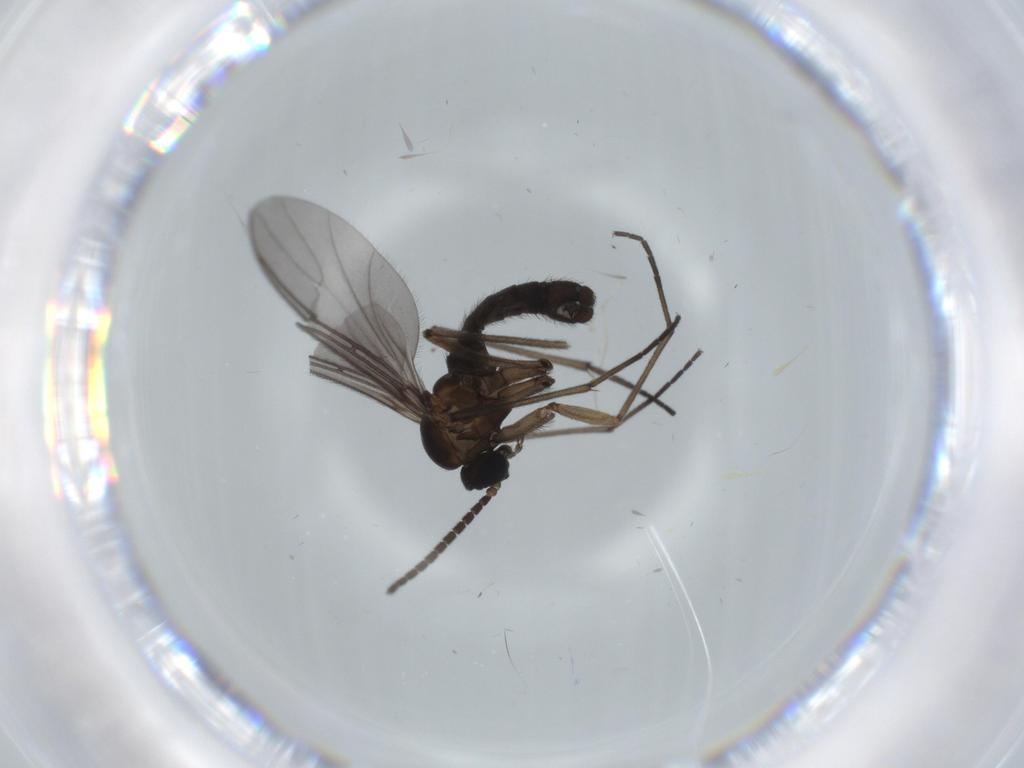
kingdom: Animalia
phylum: Arthropoda
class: Insecta
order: Diptera
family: Sciaridae
